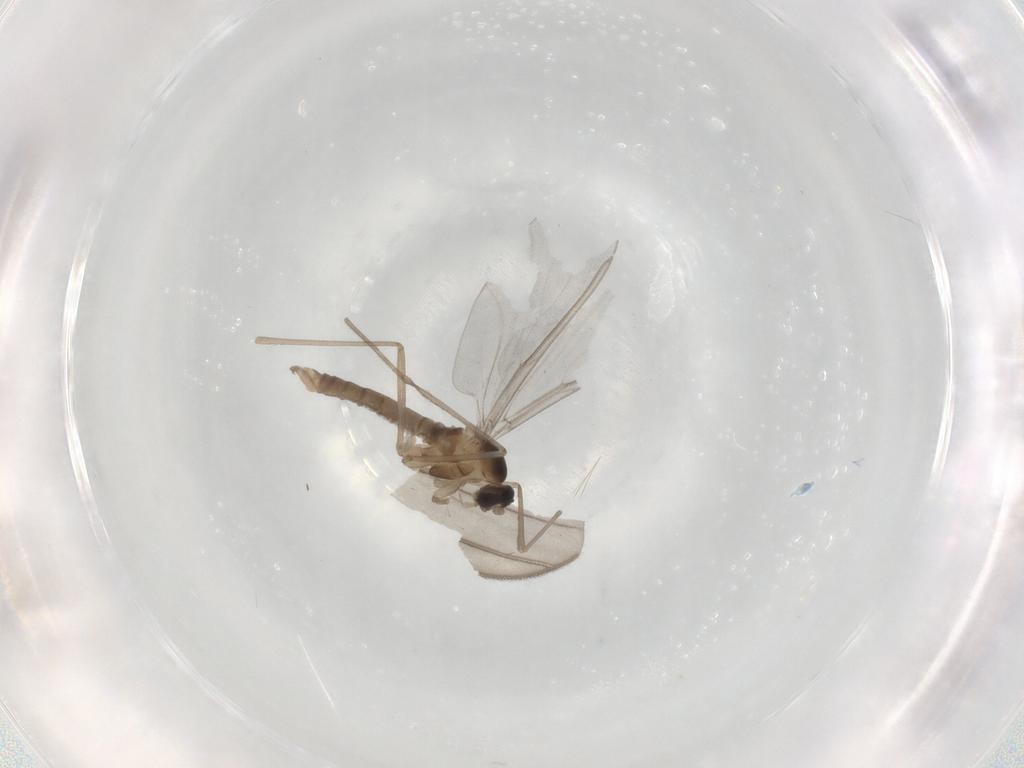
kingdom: Animalia
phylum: Arthropoda
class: Insecta
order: Diptera
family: Cecidomyiidae
